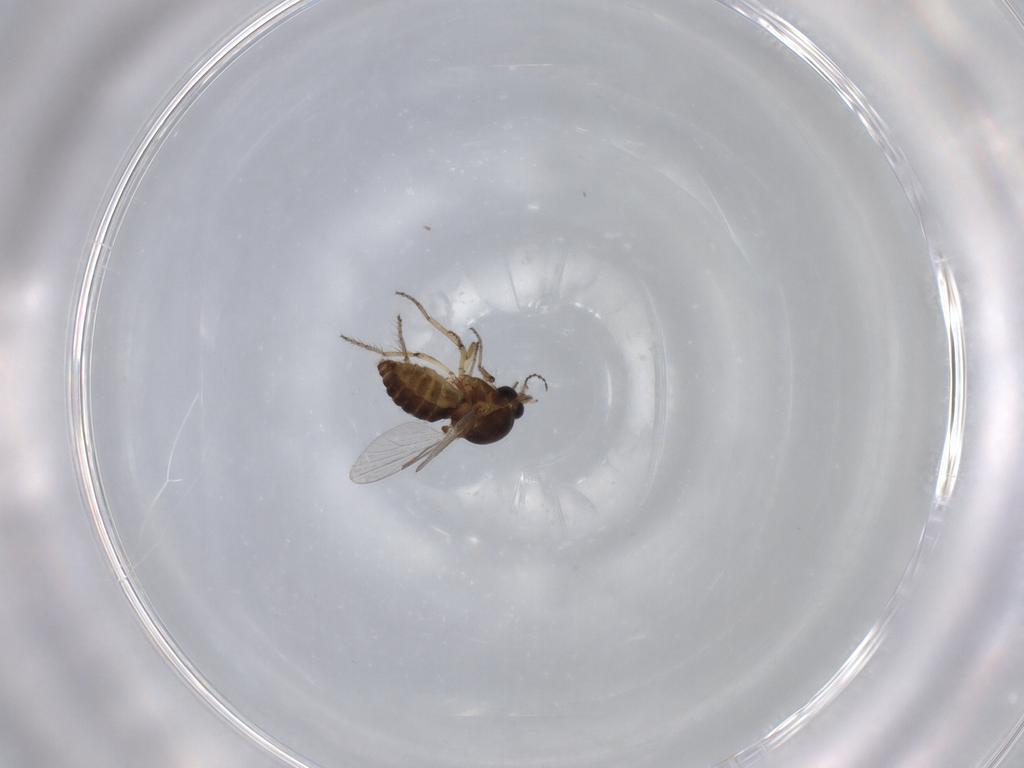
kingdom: Animalia
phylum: Arthropoda
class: Insecta
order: Diptera
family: Ceratopogonidae
